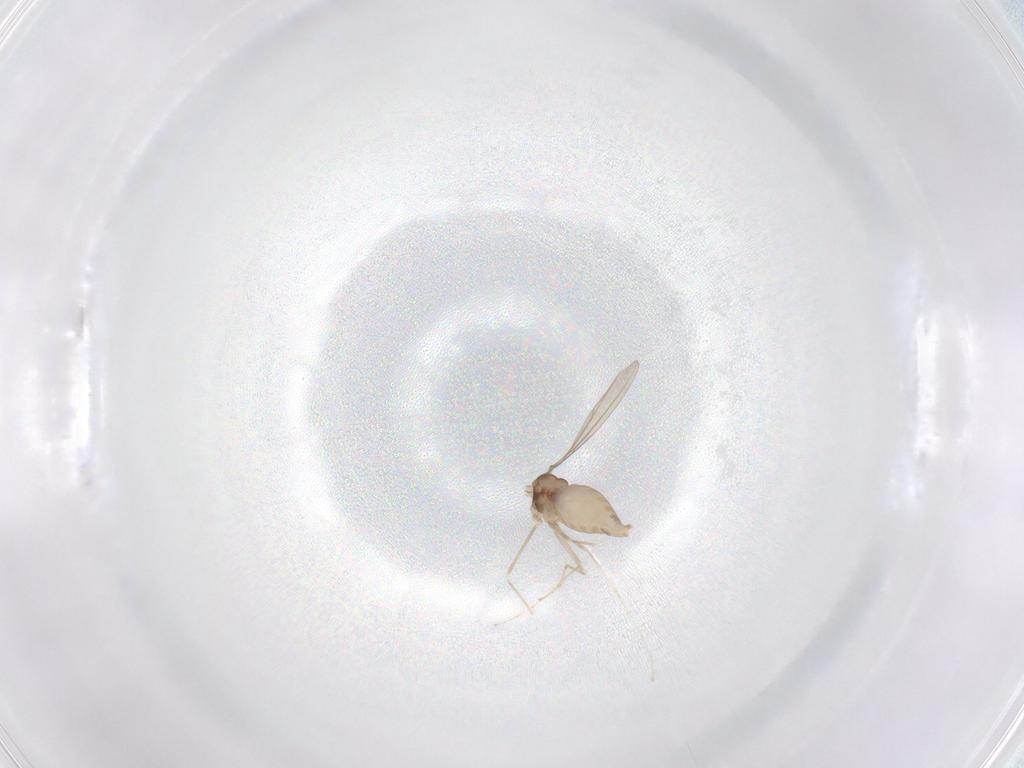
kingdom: Animalia
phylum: Arthropoda
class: Insecta
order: Diptera
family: Cecidomyiidae
